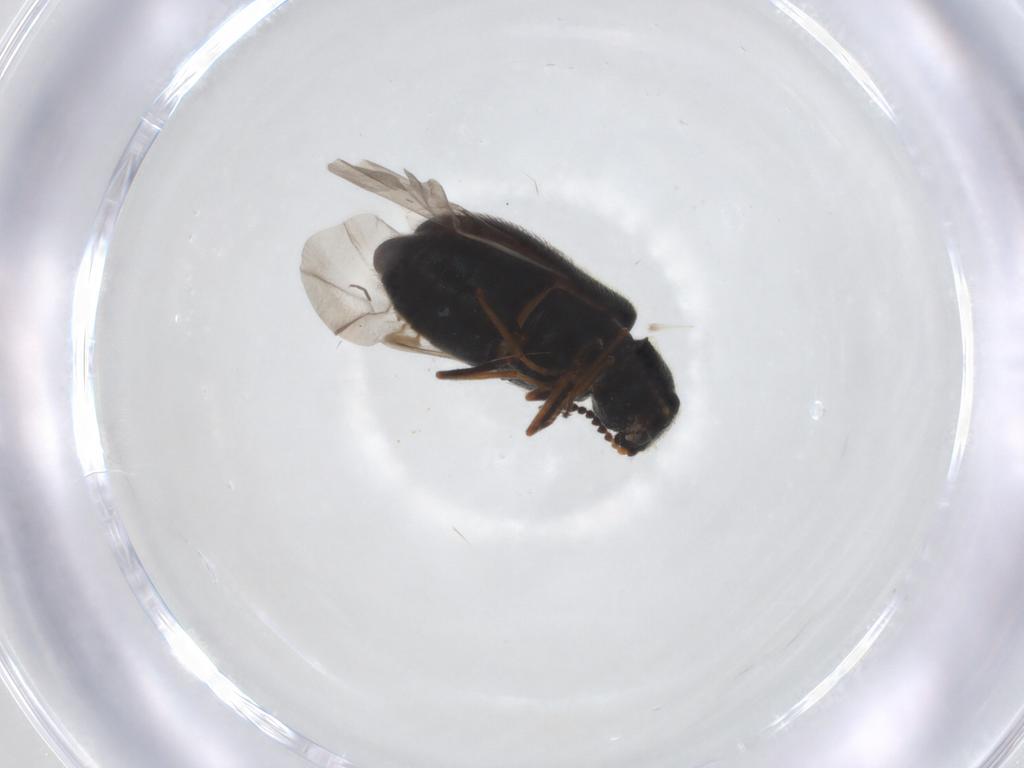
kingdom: Animalia
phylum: Arthropoda
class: Insecta
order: Coleoptera
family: Melyridae
